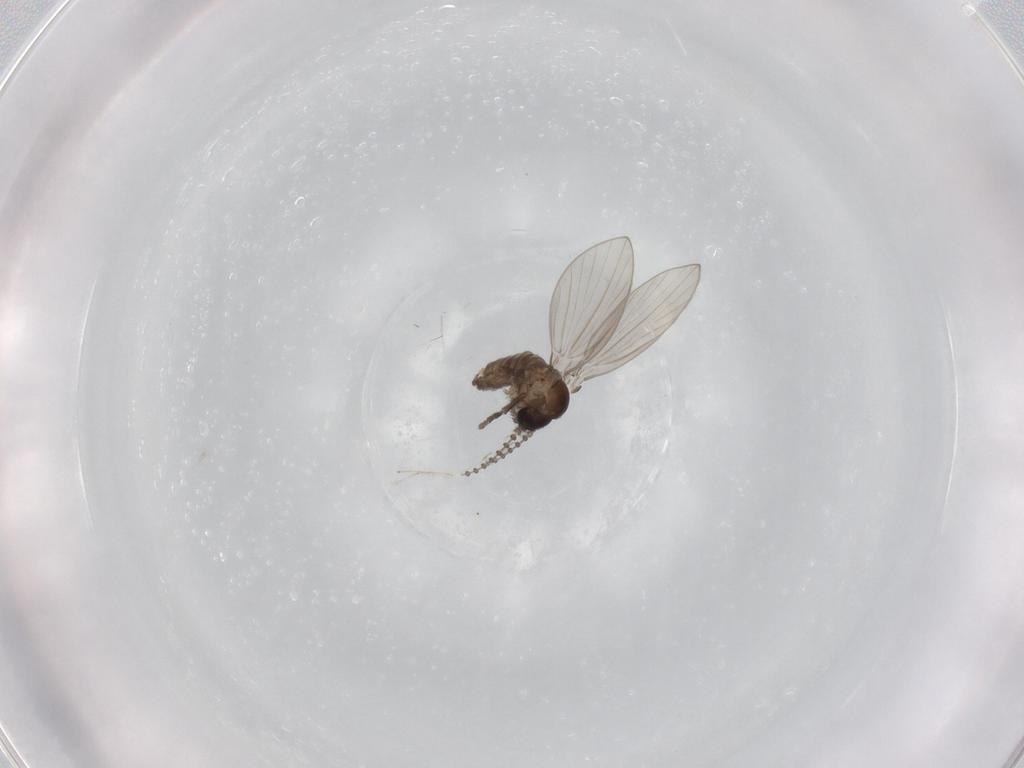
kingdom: Animalia
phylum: Arthropoda
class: Insecta
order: Diptera
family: Psychodidae
